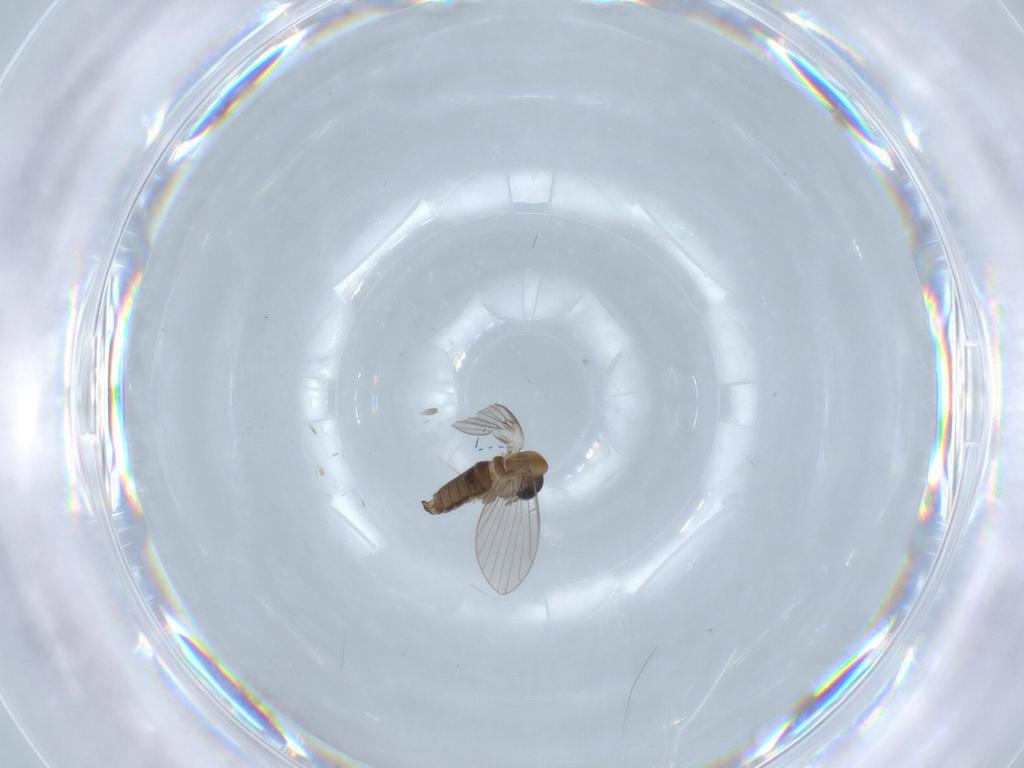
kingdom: Animalia
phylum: Arthropoda
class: Insecta
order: Diptera
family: Psychodidae
